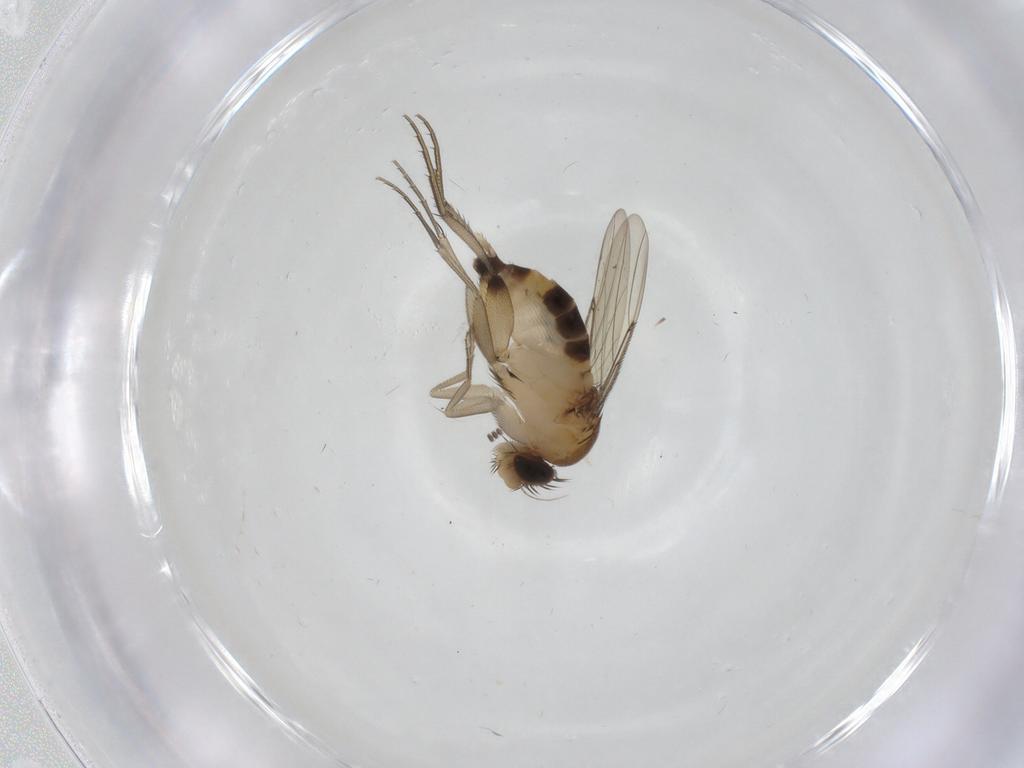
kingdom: Animalia
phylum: Arthropoda
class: Insecta
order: Diptera
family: Phoridae
